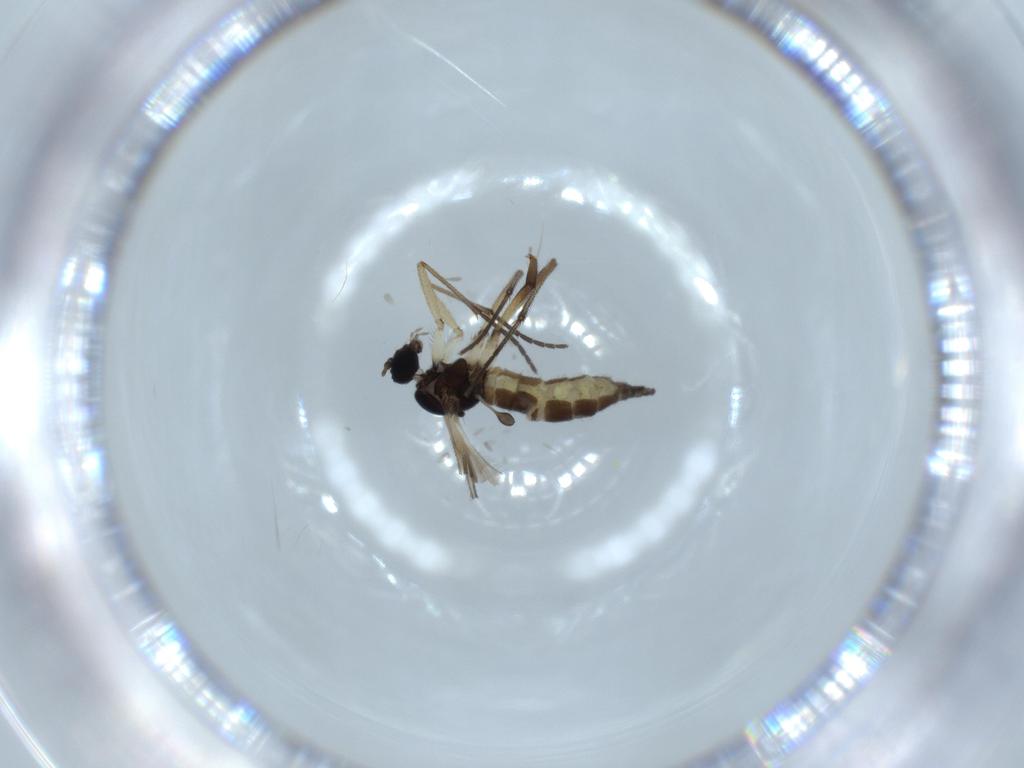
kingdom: Animalia
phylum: Arthropoda
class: Insecta
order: Diptera
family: Sciaridae
